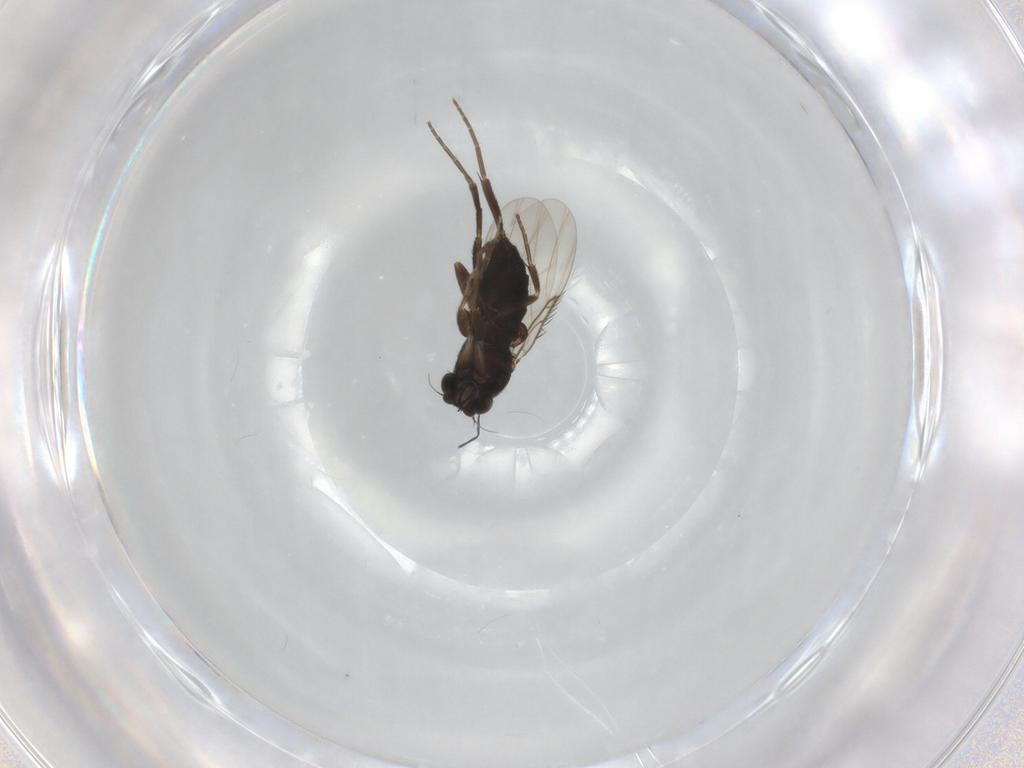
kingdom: Animalia
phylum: Arthropoda
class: Insecta
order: Diptera
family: Phoridae
